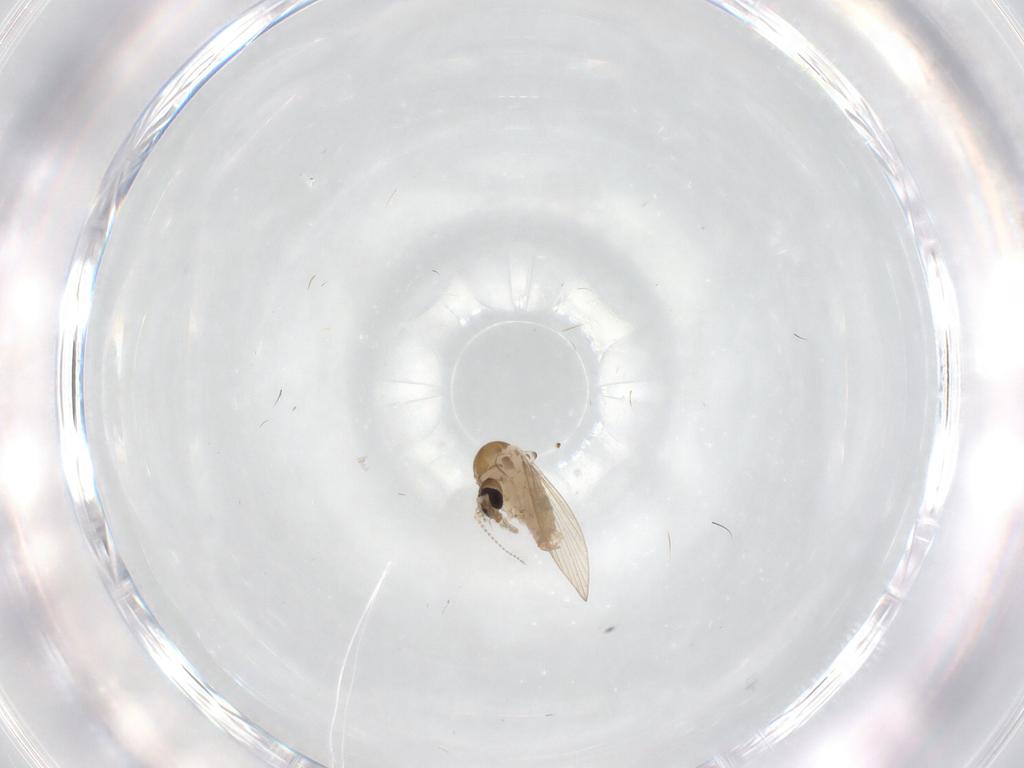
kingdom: Animalia
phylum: Arthropoda
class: Insecta
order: Diptera
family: Psychodidae
